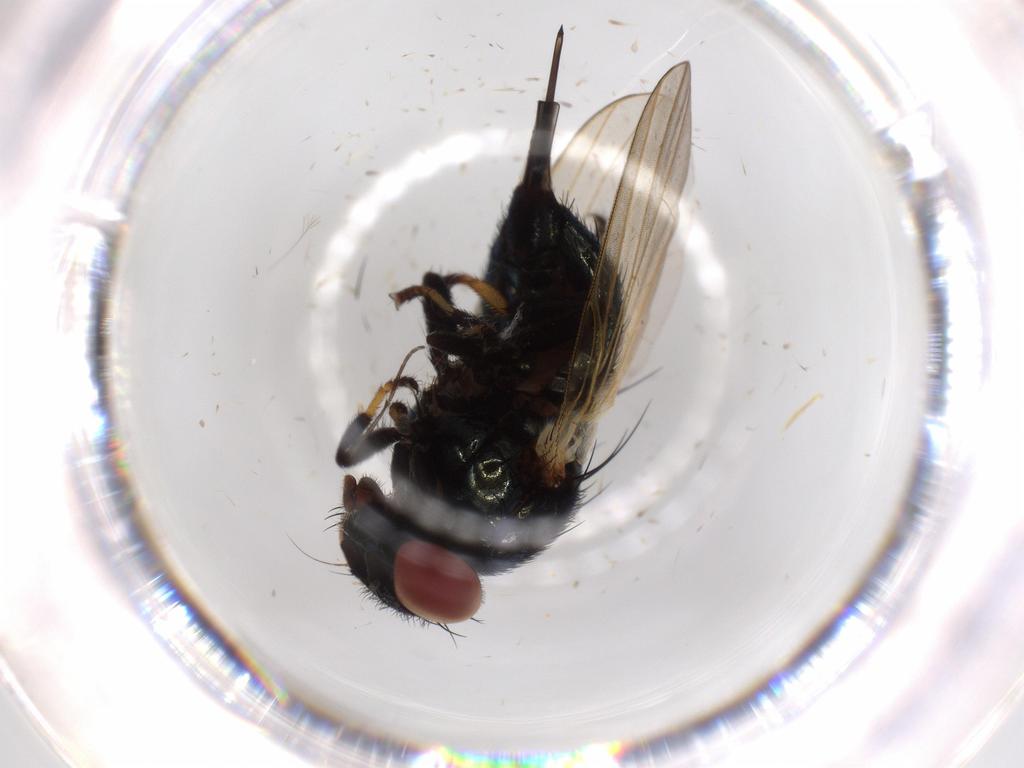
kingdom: Animalia
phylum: Arthropoda
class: Insecta
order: Diptera
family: Lonchaeidae
